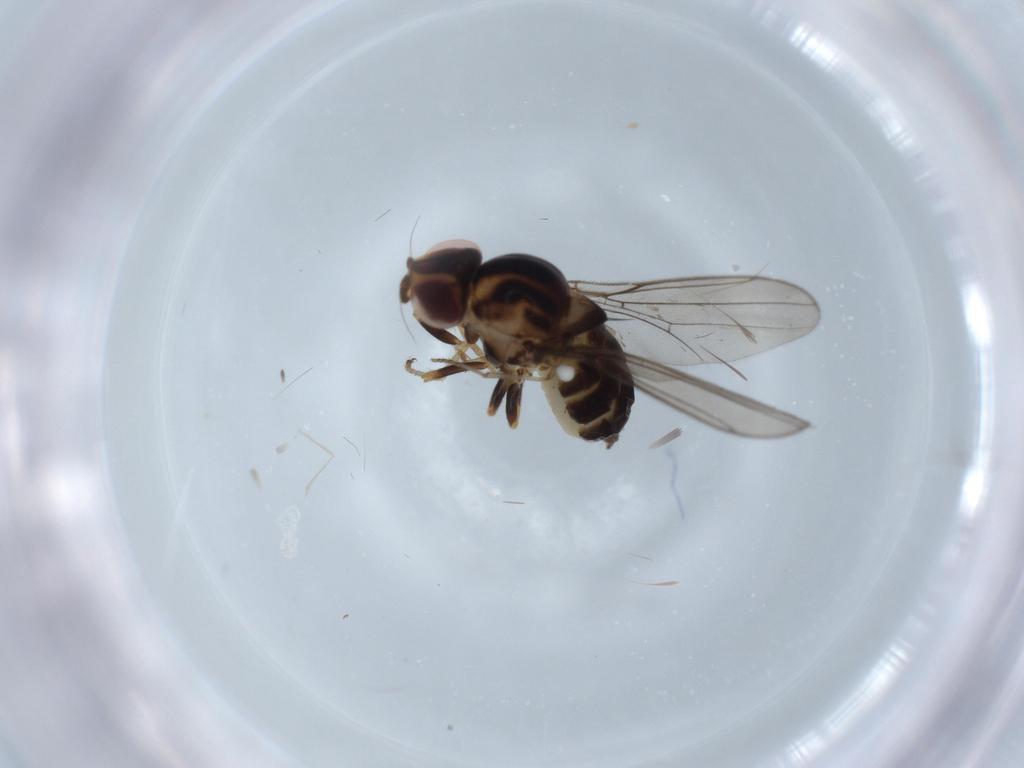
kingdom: Animalia
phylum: Arthropoda
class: Insecta
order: Diptera
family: Chloropidae
